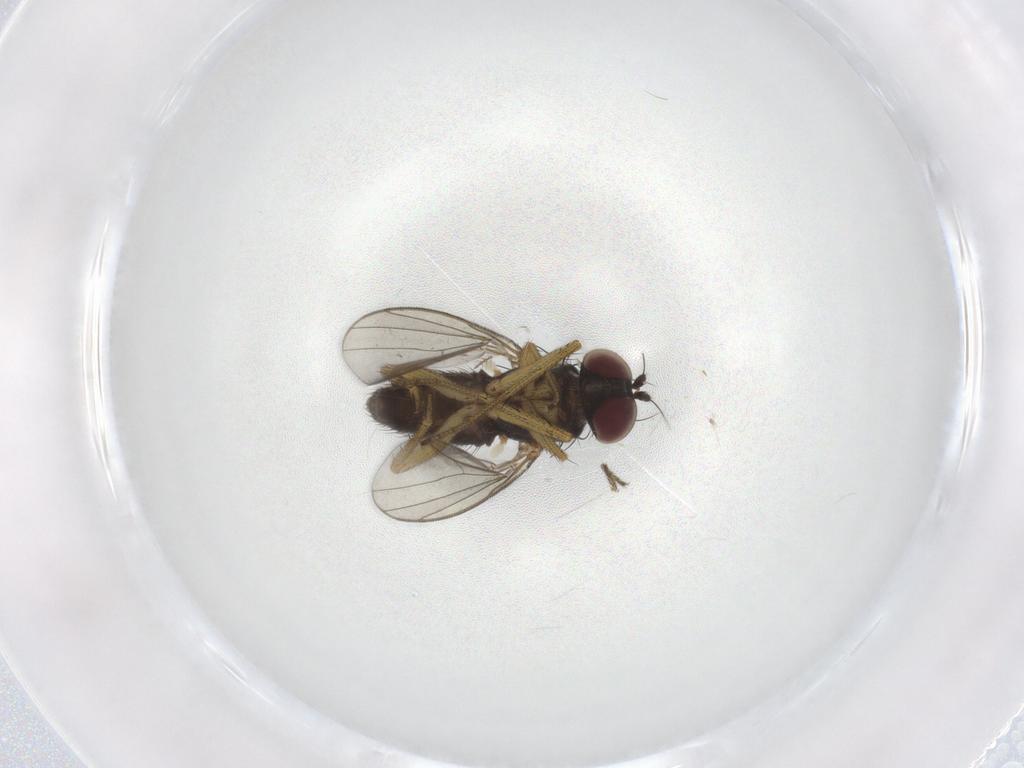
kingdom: Animalia
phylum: Arthropoda
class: Insecta
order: Diptera
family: Dolichopodidae
